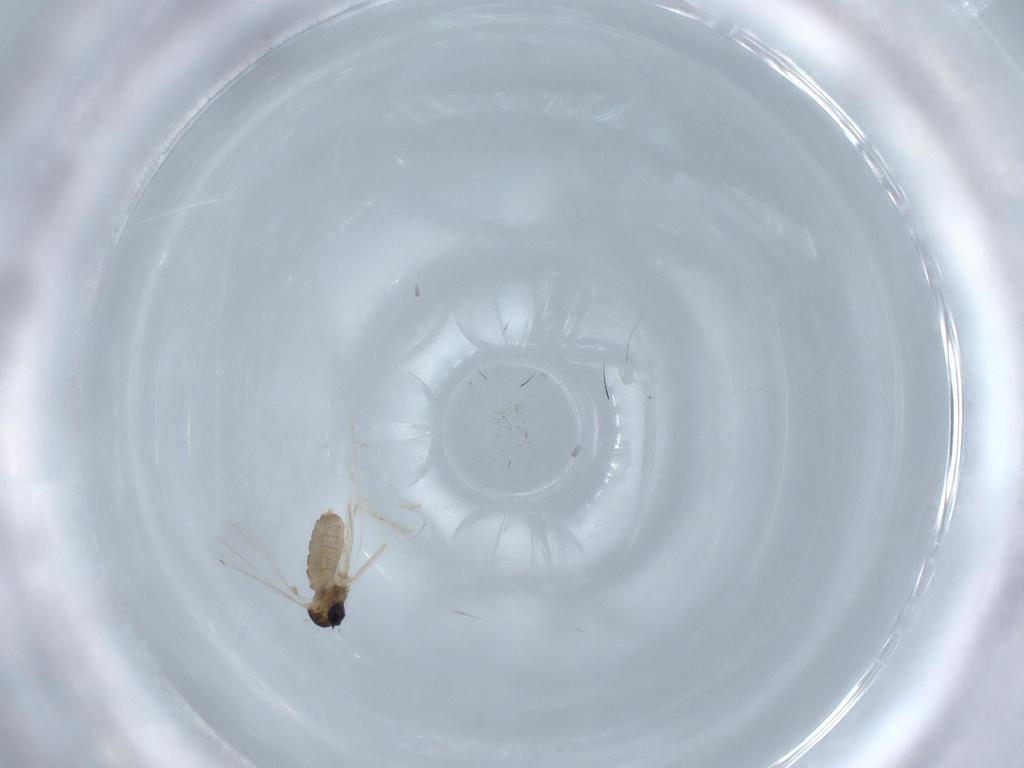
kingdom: Animalia
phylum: Arthropoda
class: Insecta
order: Diptera
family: Cecidomyiidae
